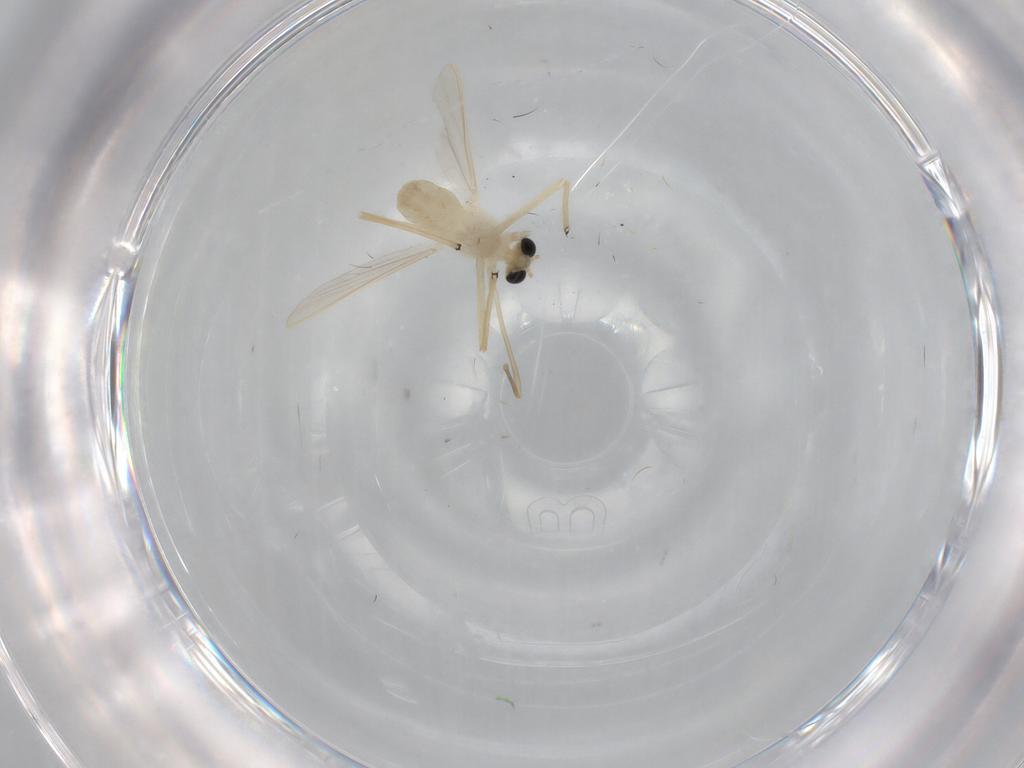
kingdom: Animalia
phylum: Arthropoda
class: Insecta
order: Diptera
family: Chironomidae
